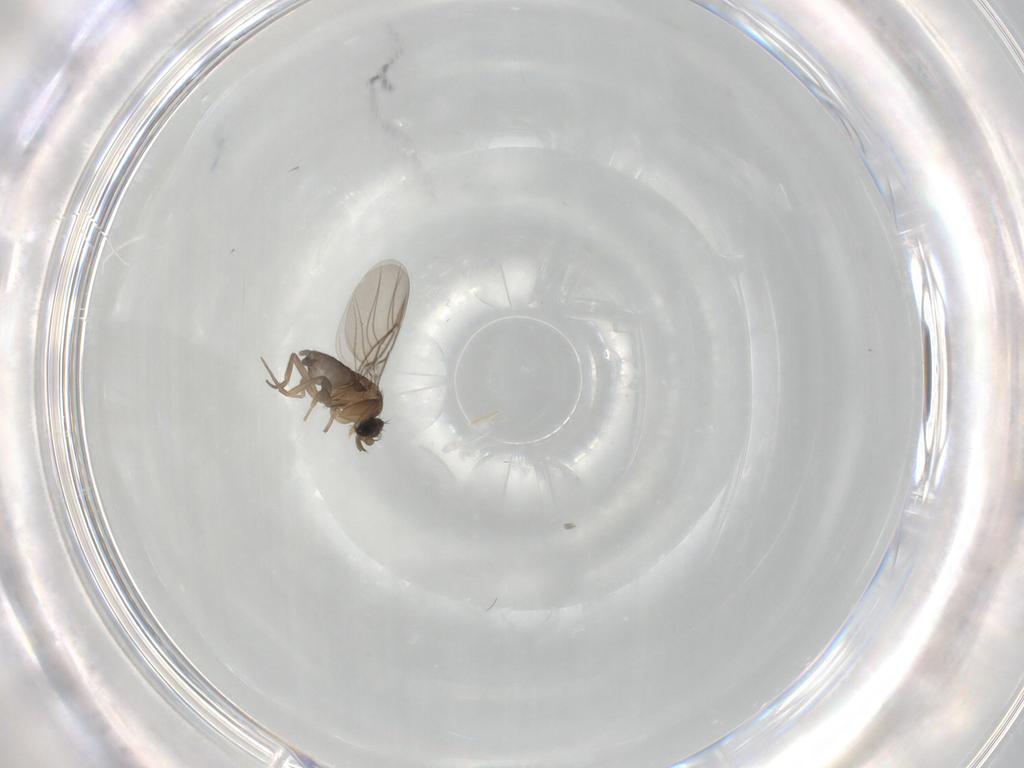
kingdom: Animalia
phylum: Arthropoda
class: Insecta
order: Diptera
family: Phoridae
